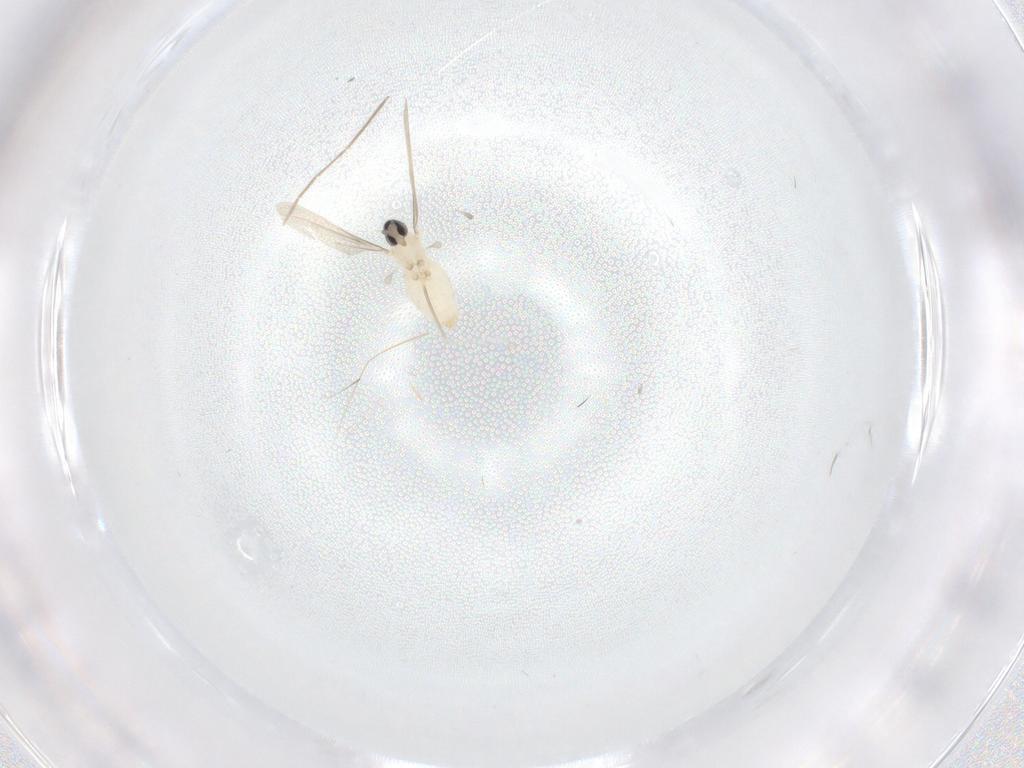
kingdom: Animalia
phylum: Arthropoda
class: Insecta
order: Diptera
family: Cecidomyiidae
